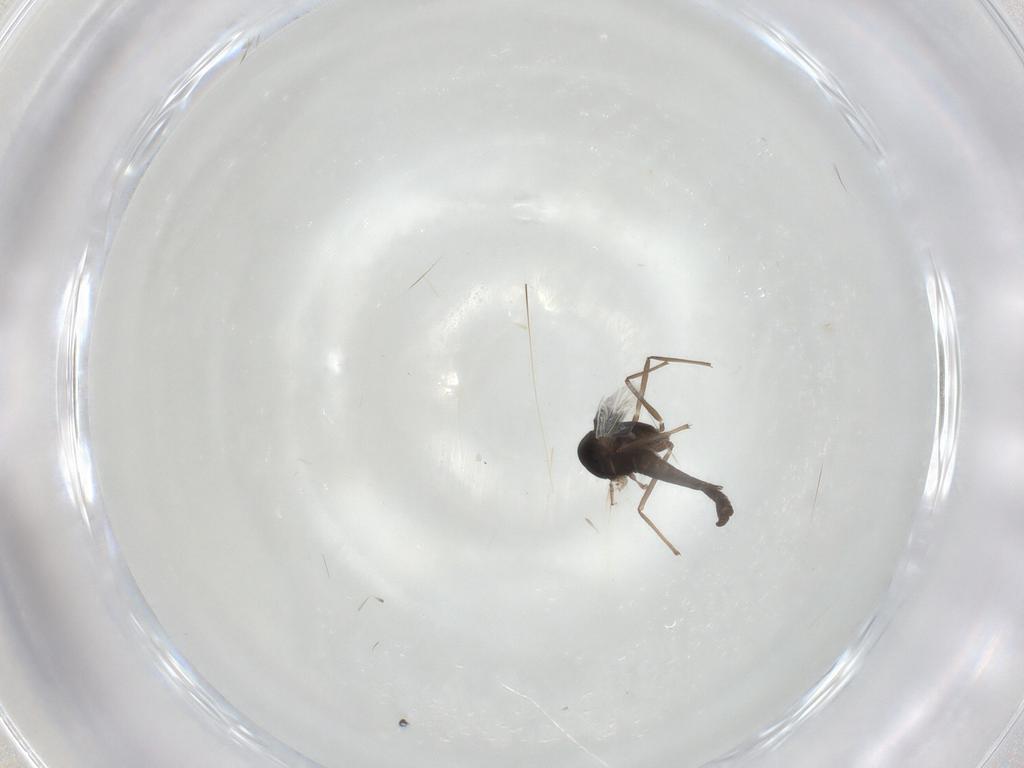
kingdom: Animalia
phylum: Arthropoda
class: Insecta
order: Diptera
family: Chironomidae
